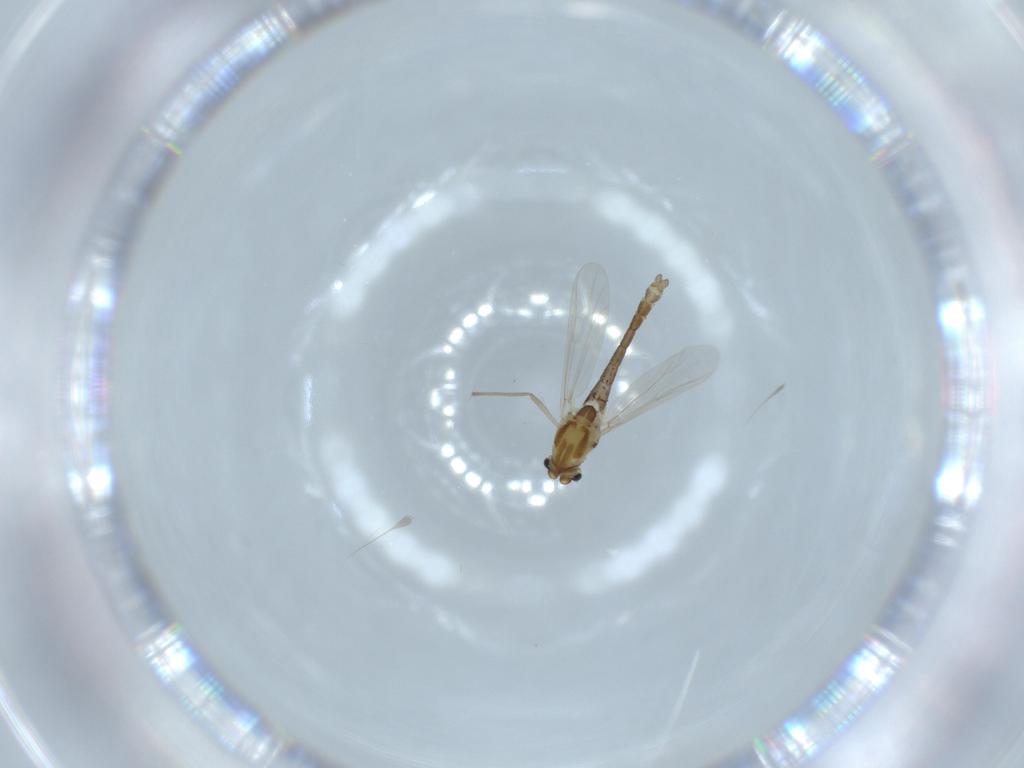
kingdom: Animalia
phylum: Arthropoda
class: Insecta
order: Diptera
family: Chironomidae
